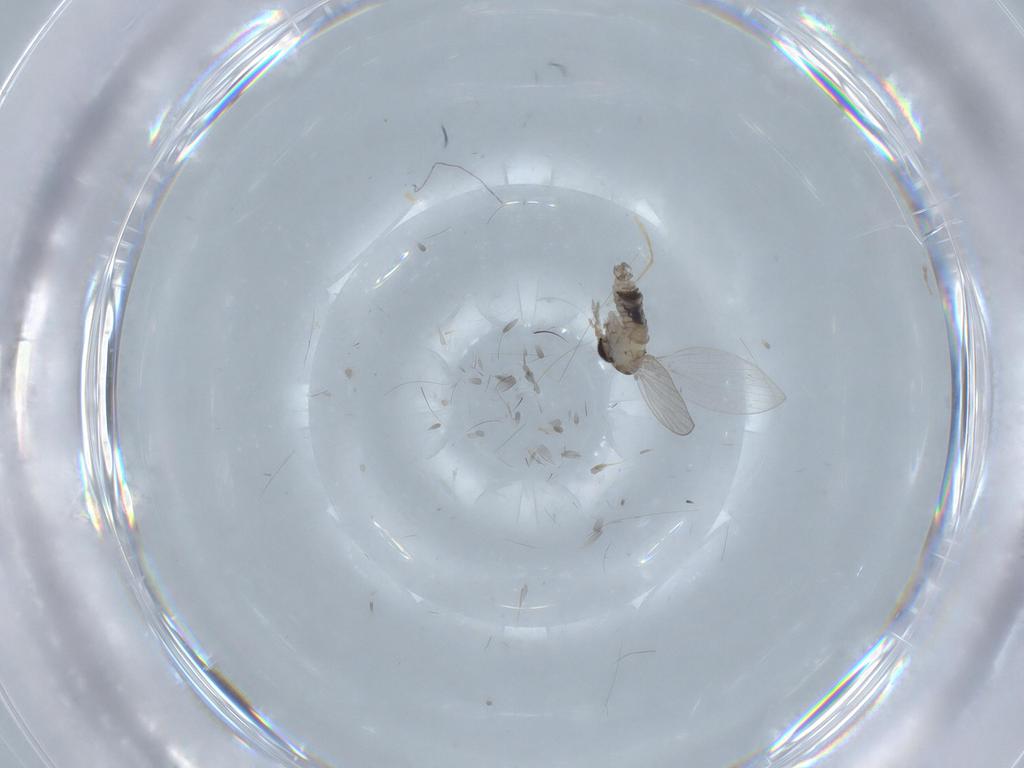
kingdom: Animalia
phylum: Arthropoda
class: Insecta
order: Diptera
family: Psychodidae
